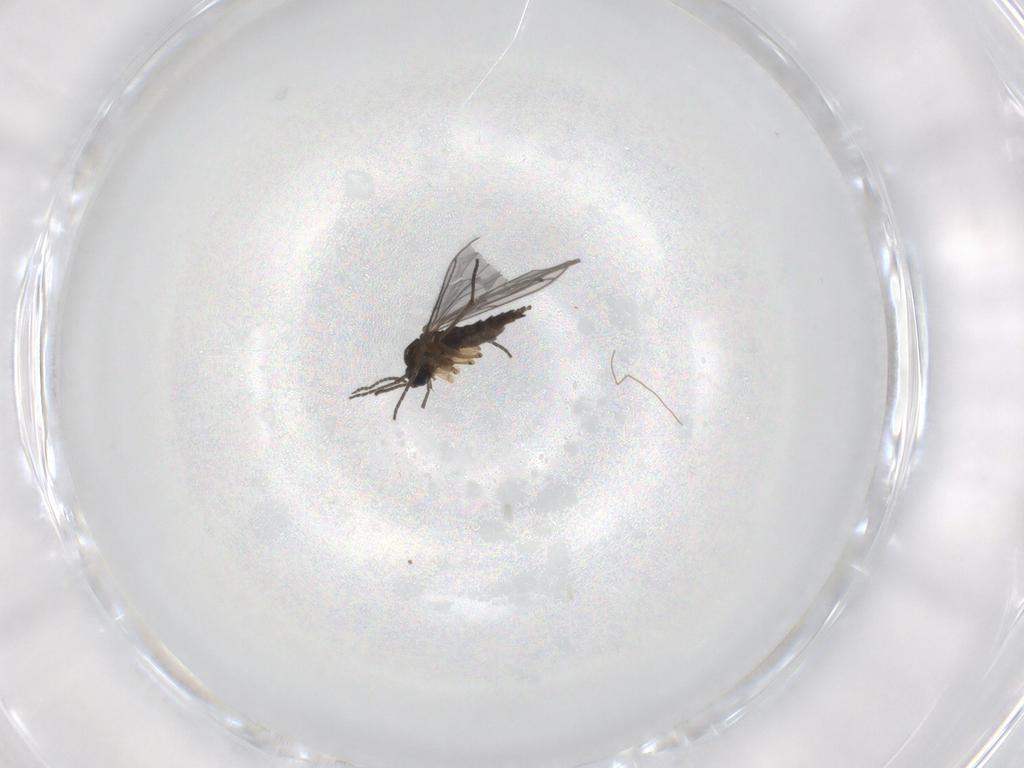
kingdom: Animalia
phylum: Arthropoda
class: Insecta
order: Diptera
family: Sciaridae
